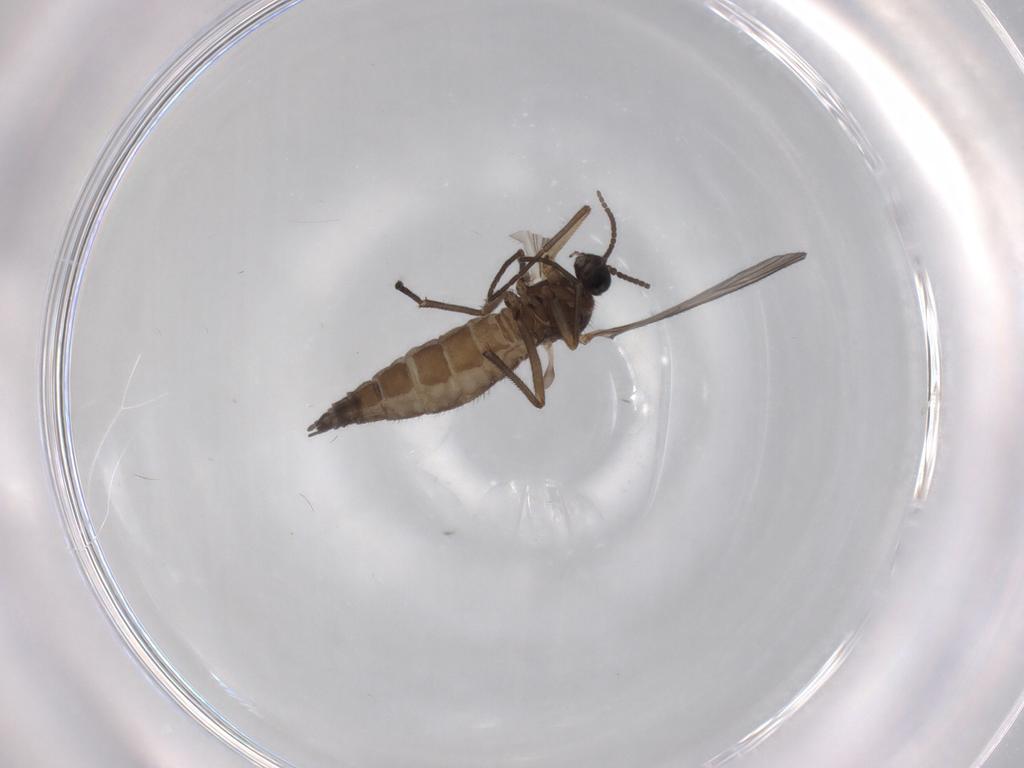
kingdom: Animalia
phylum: Arthropoda
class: Insecta
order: Diptera
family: Sciaridae
